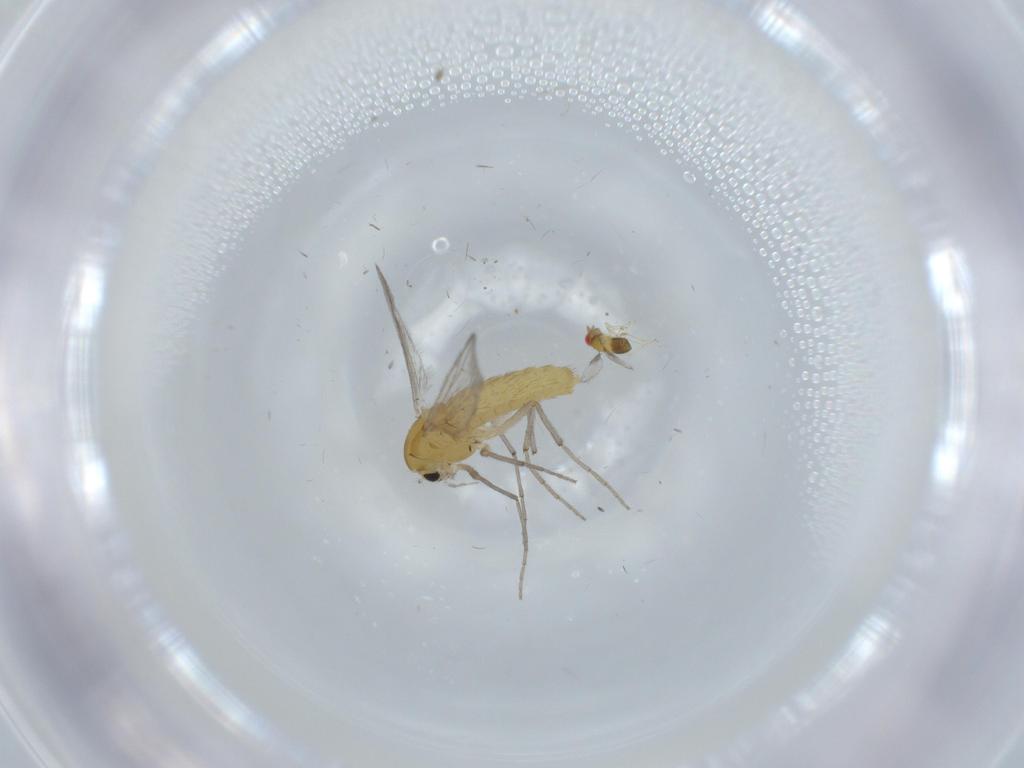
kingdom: Animalia
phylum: Arthropoda
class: Insecta
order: Diptera
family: Chironomidae
